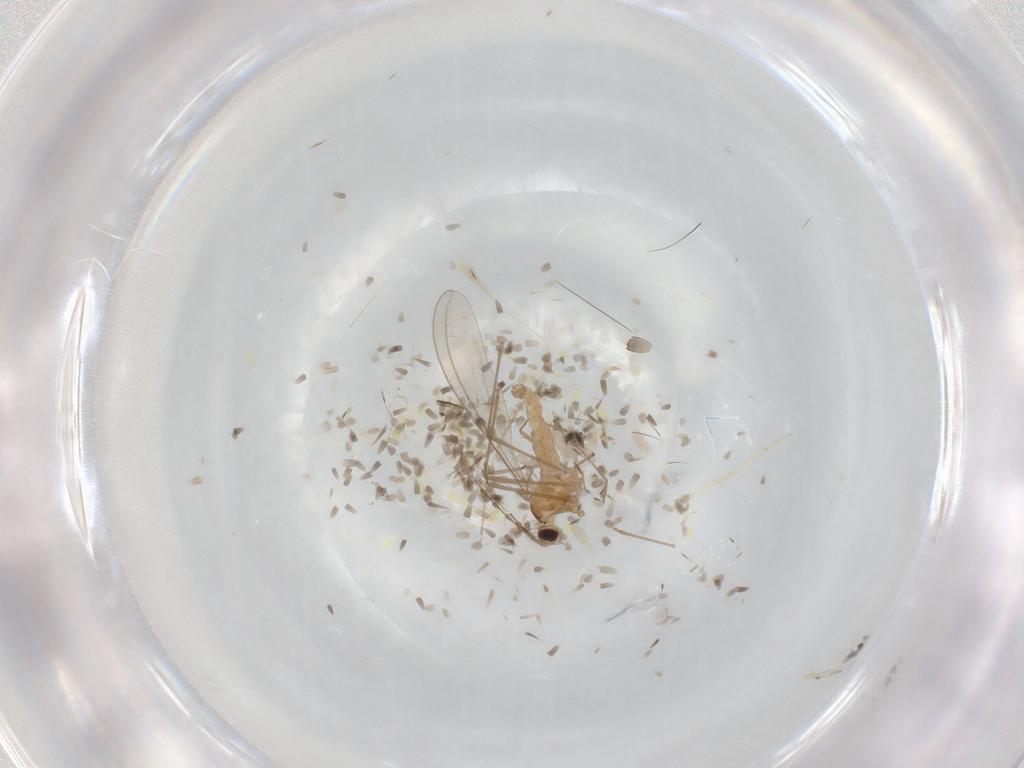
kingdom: Animalia
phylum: Arthropoda
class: Insecta
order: Diptera
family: Cecidomyiidae
